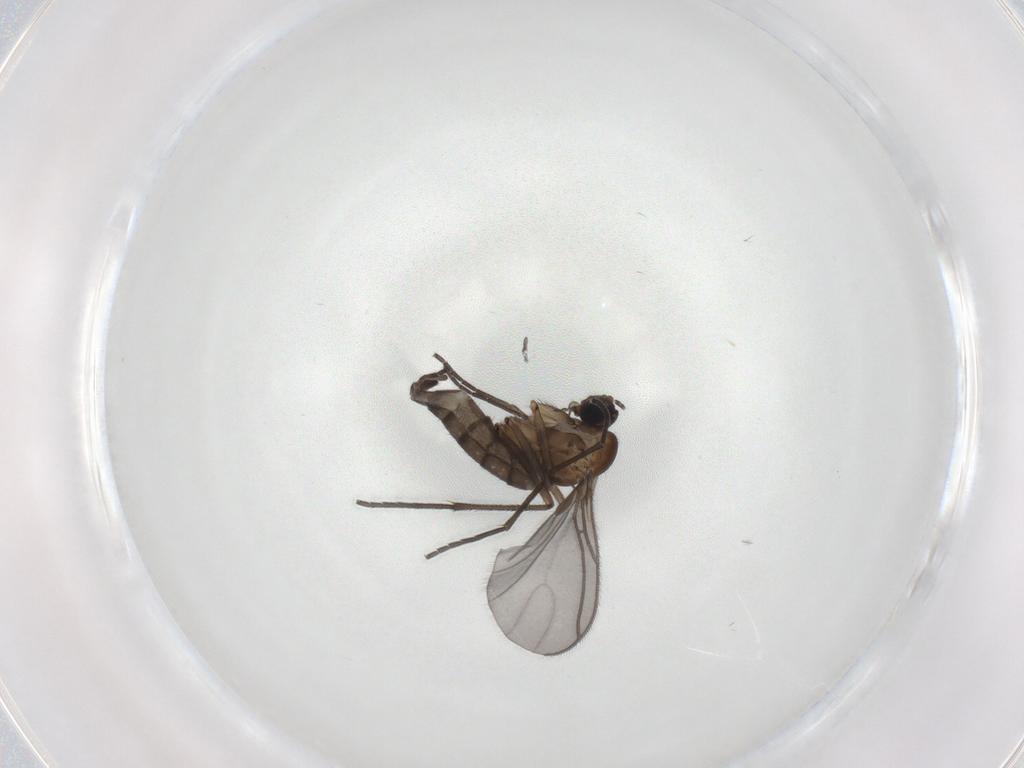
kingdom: Animalia
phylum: Arthropoda
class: Insecta
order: Diptera
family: Sciaridae
